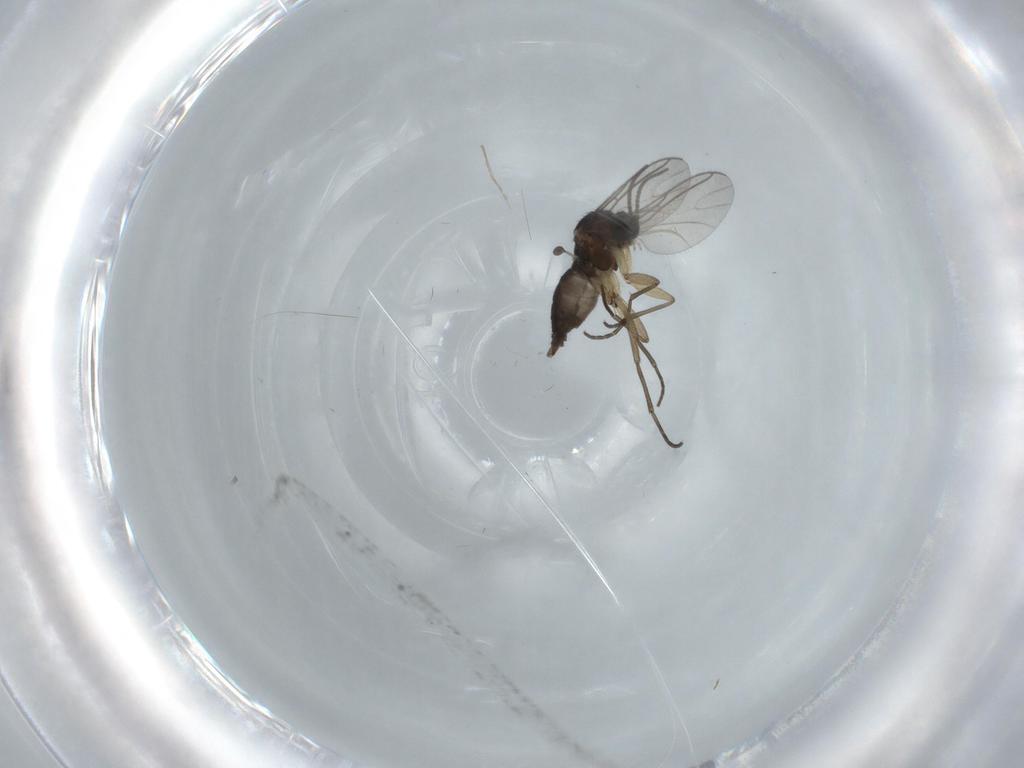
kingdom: Animalia
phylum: Arthropoda
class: Insecta
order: Diptera
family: Sciaridae
